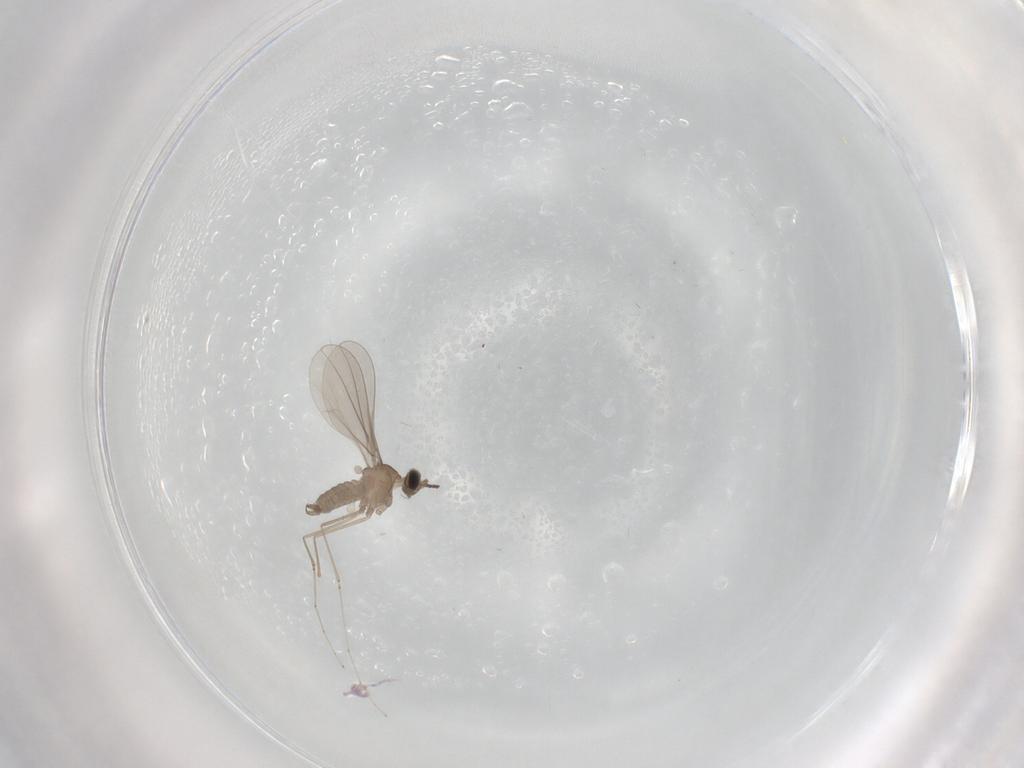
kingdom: Animalia
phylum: Arthropoda
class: Insecta
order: Diptera
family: Cecidomyiidae
